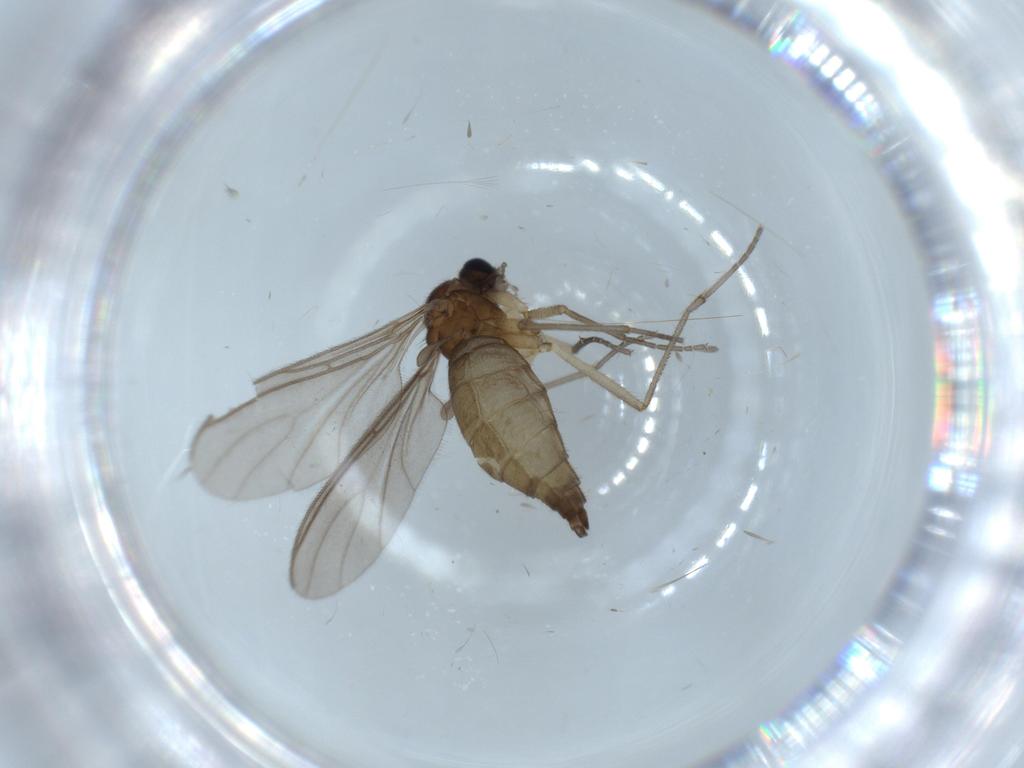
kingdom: Animalia
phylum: Arthropoda
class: Insecta
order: Diptera
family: Sciaridae
